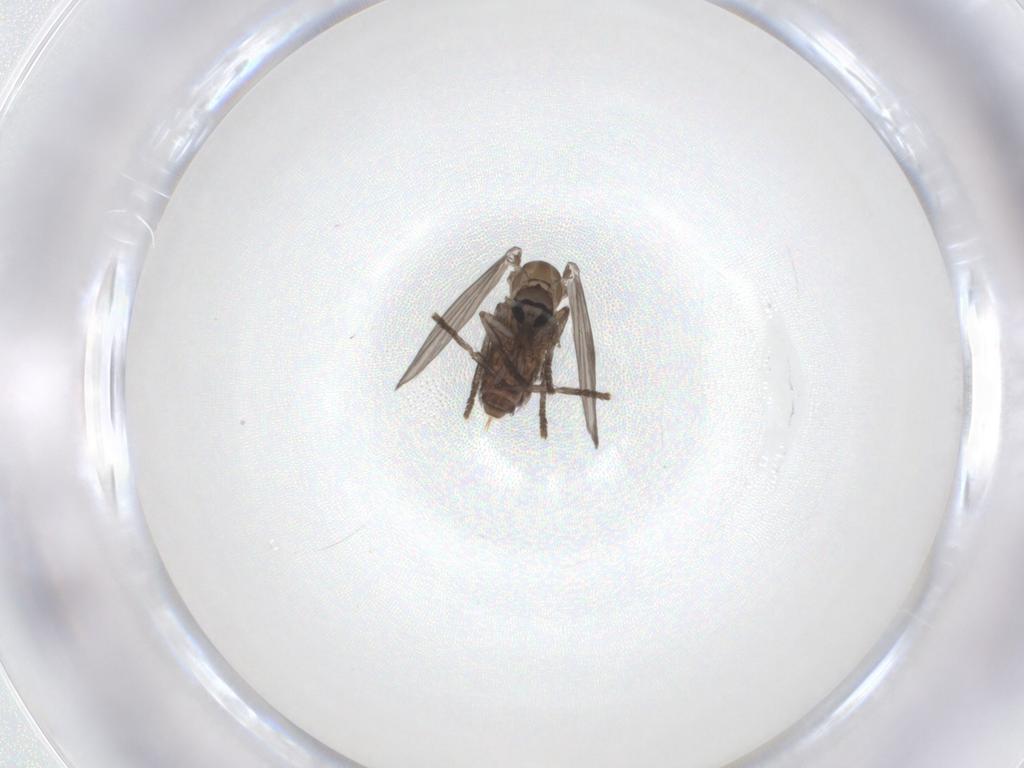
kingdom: Animalia
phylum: Arthropoda
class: Insecta
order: Diptera
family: Psychodidae
